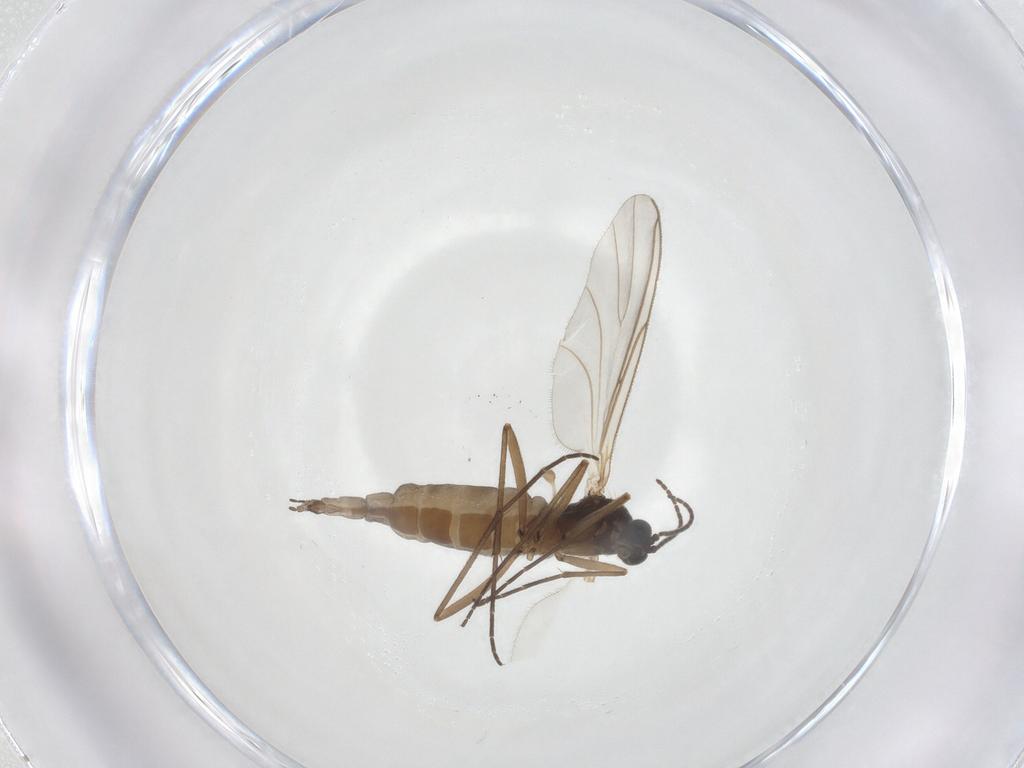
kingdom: Animalia
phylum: Arthropoda
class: Insecta
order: Diptera
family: Sciaridae
